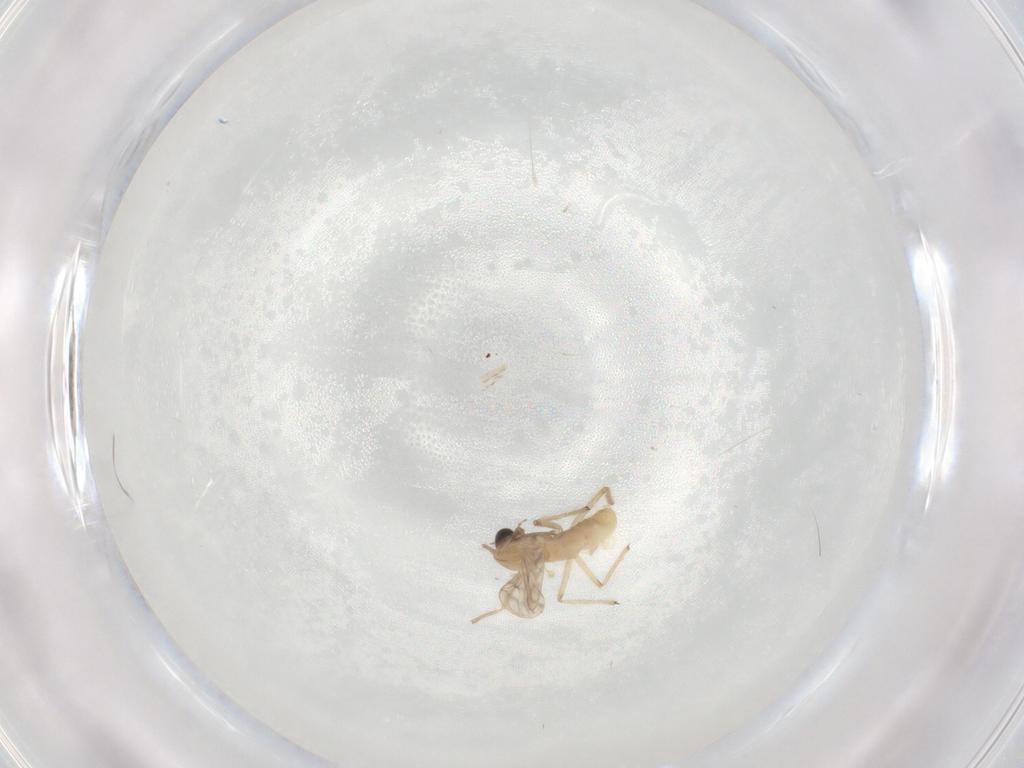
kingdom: Animalia
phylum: Arthropoda
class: Insecta
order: Diptera
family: Chironomidae
